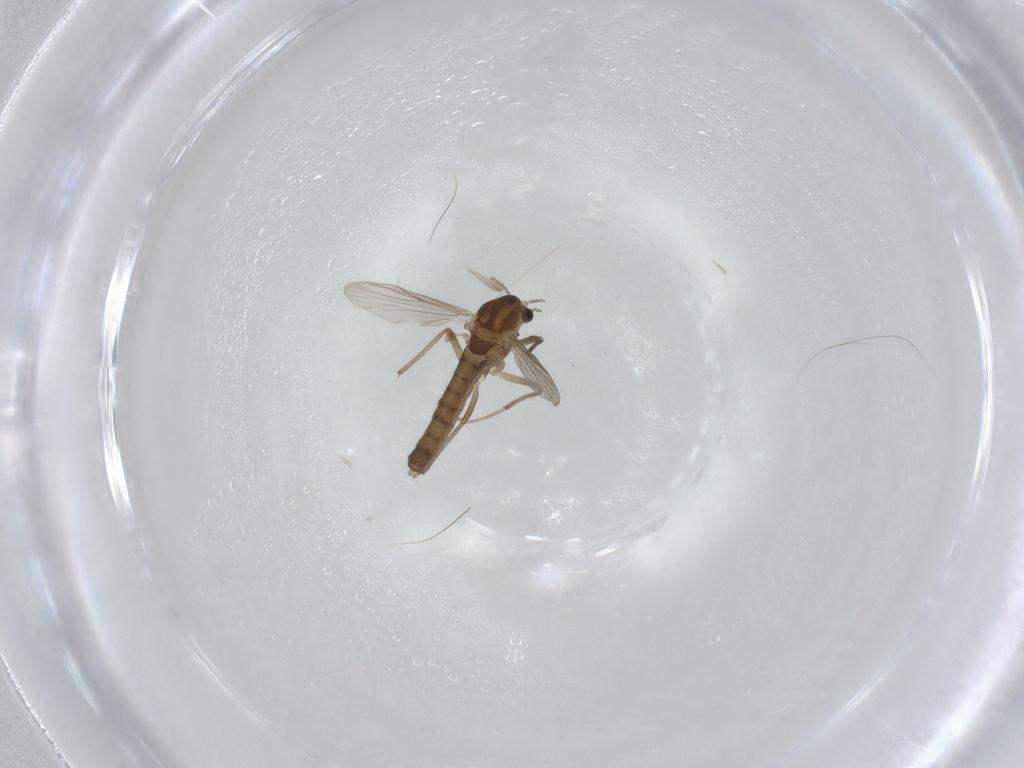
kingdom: Animalia
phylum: Arthropoda
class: Insecta
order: Diptera
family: Chironomidae
